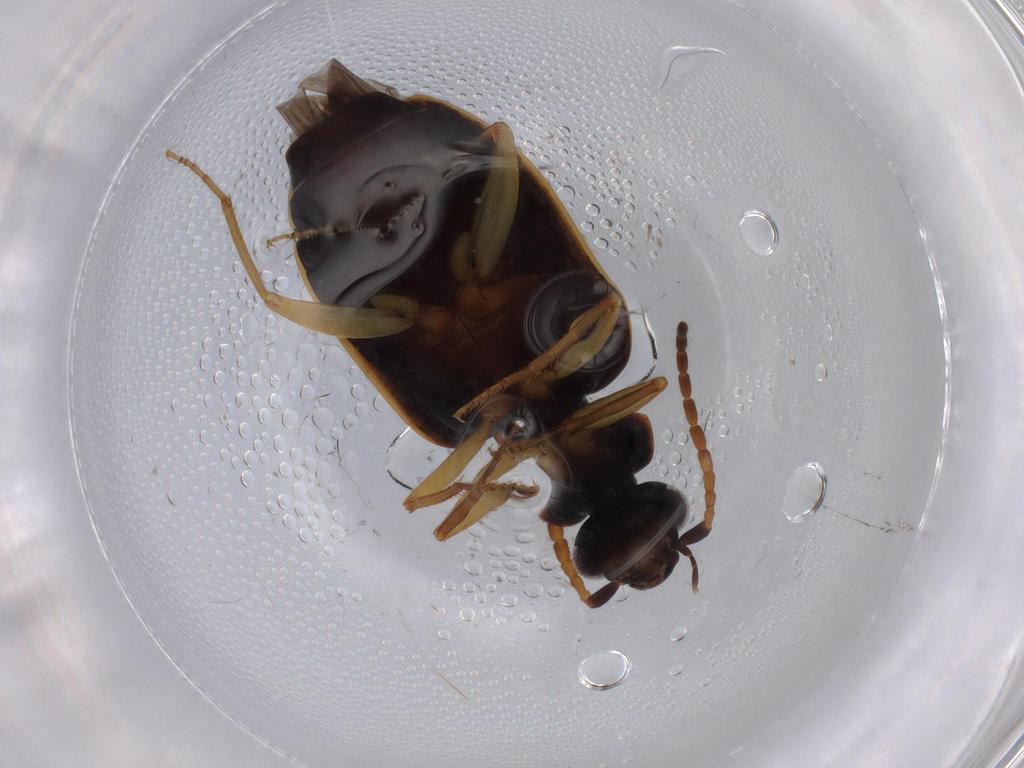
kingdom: Animalia
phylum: Arthropoda
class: Insecta
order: Coleoptera
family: Carabidae
